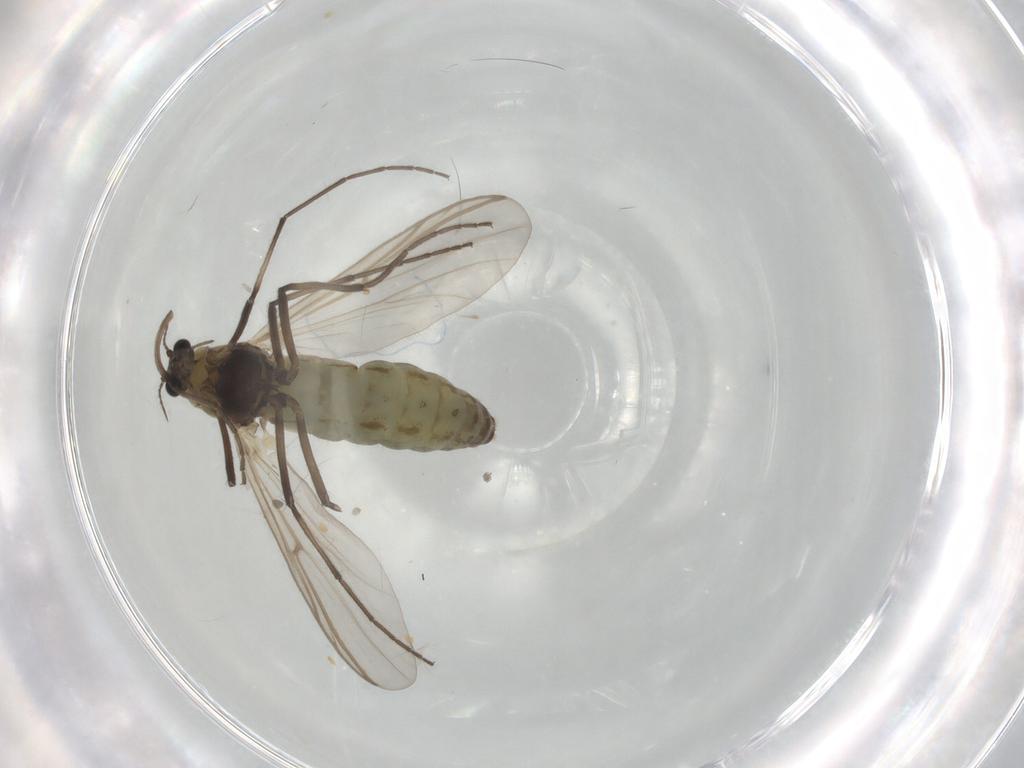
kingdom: Animalia
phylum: Arthropoda
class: Insecta
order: Diptera
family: Chironomidae
